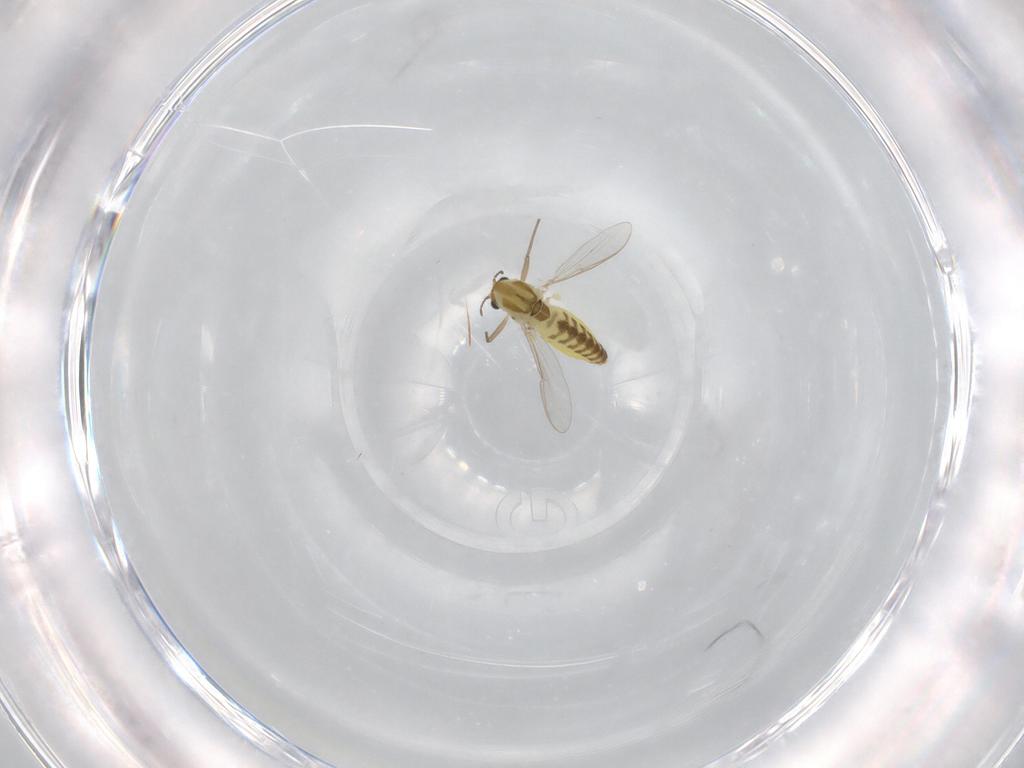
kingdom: Animalia
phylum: Arthropoda
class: Insecta
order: Diptera
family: Chironomidae
